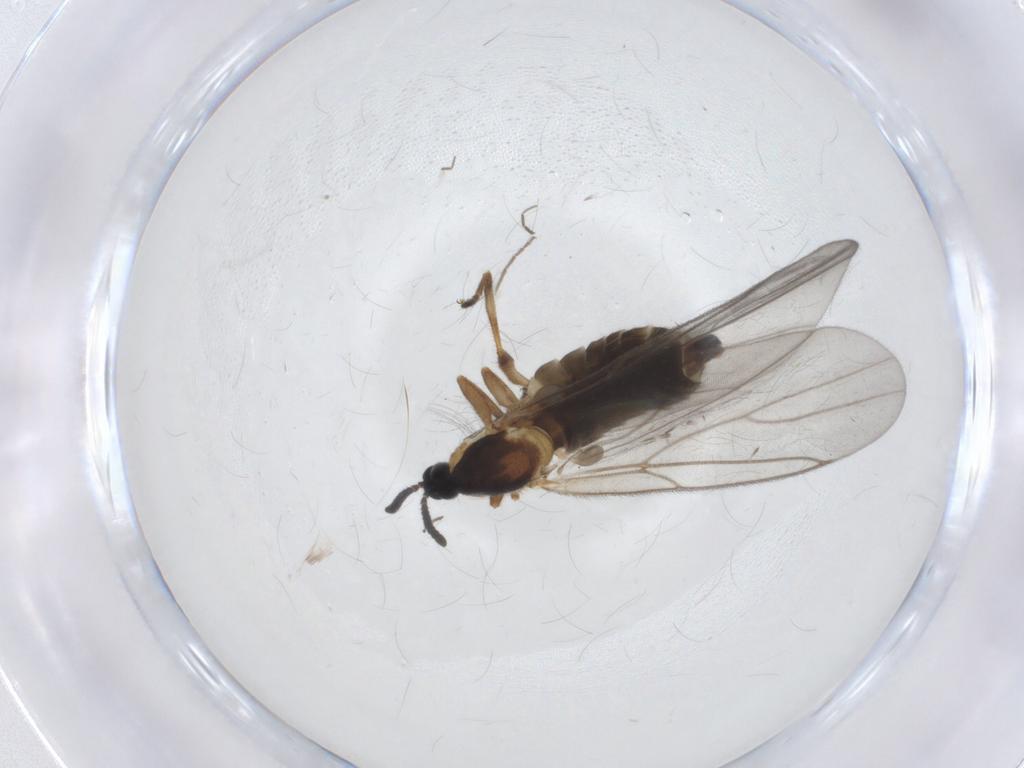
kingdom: Animalia
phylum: Arthropoda
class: Insecta
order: Diptera
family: Scatopsidae
